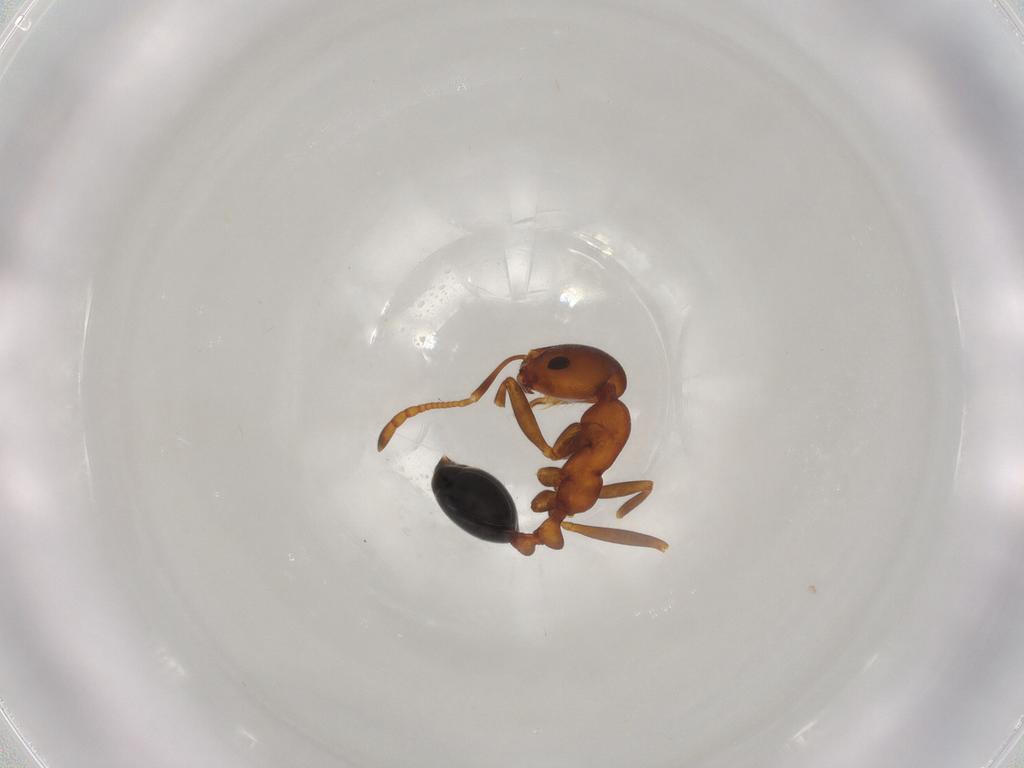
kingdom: Animalia
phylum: Arthropoda
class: Insecta
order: Hymenoptera
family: Formicidae
